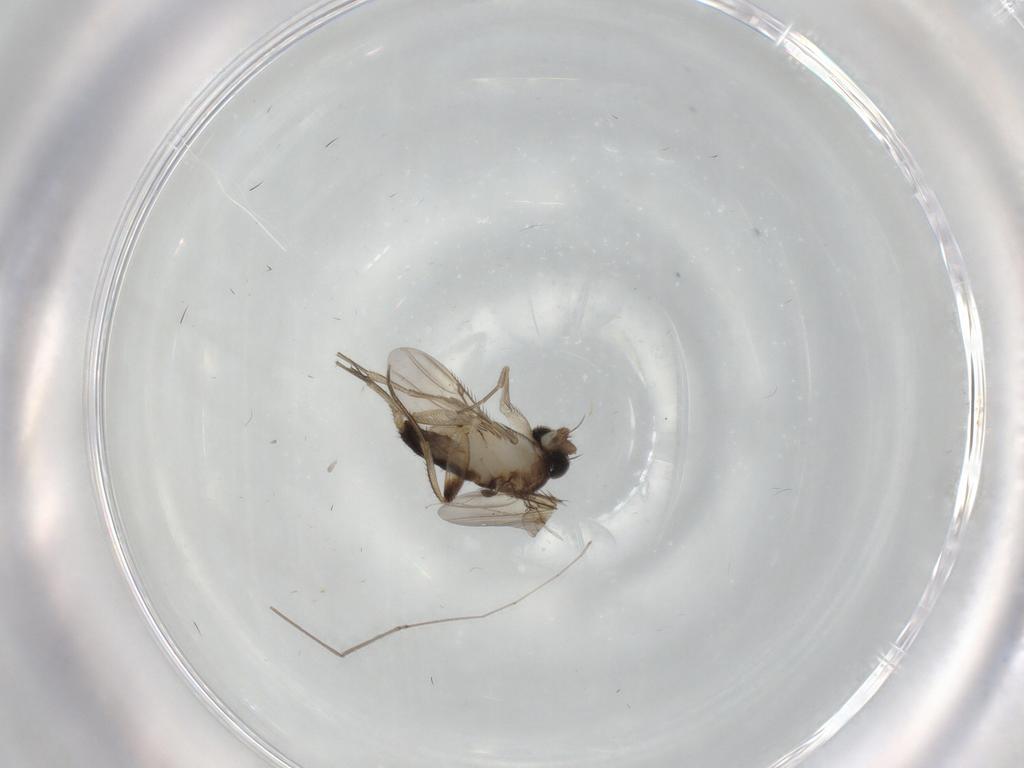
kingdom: Animalia
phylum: Arthropoda
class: Insecta
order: Diptera
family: Phoridae
